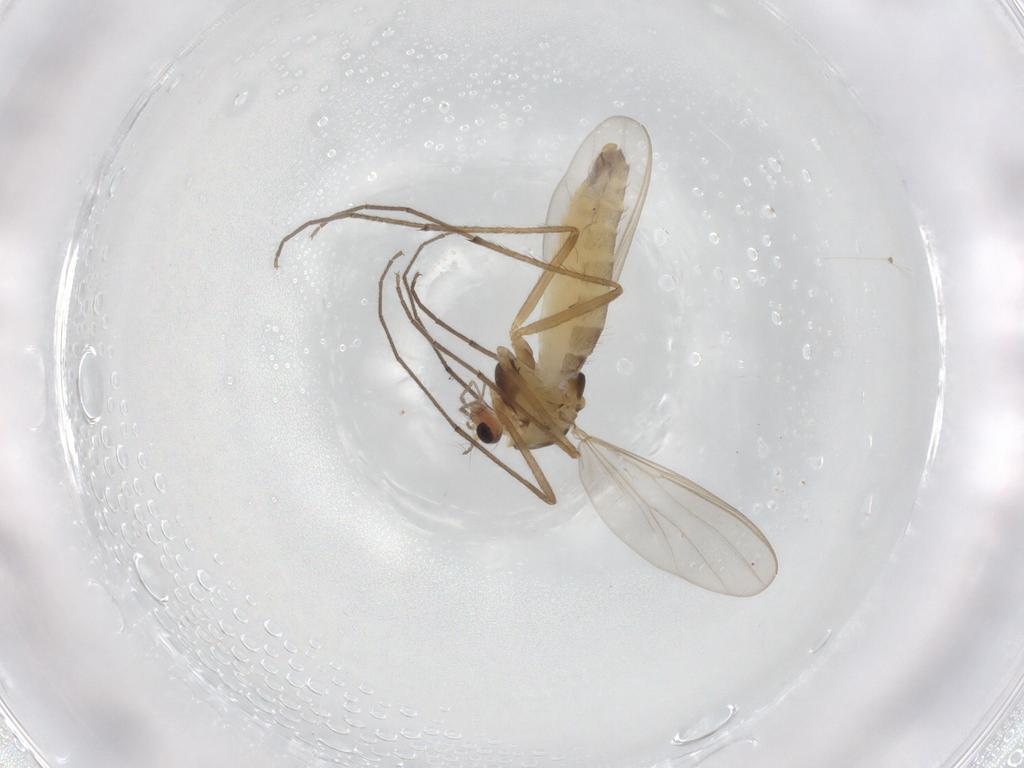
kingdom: Animalia
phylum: Arthropoda
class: Insecta
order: Diptera
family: Chironomidae
